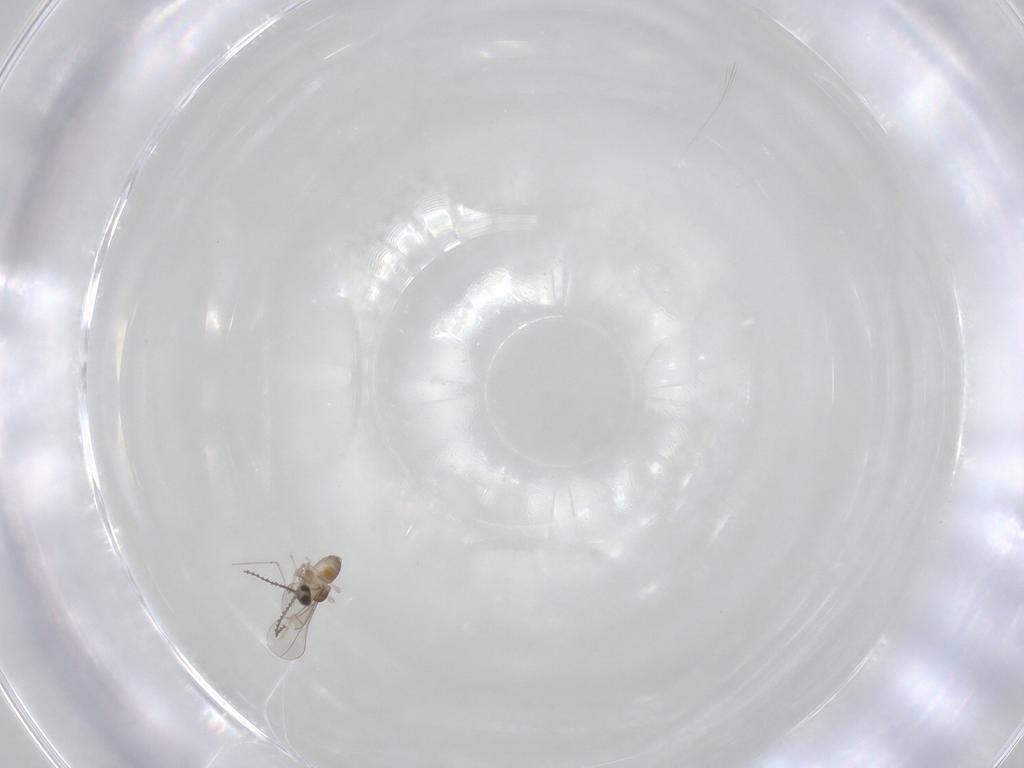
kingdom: Animalia
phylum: Arthropoda
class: Insecta
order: Diptera
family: Cecidomyiidae
